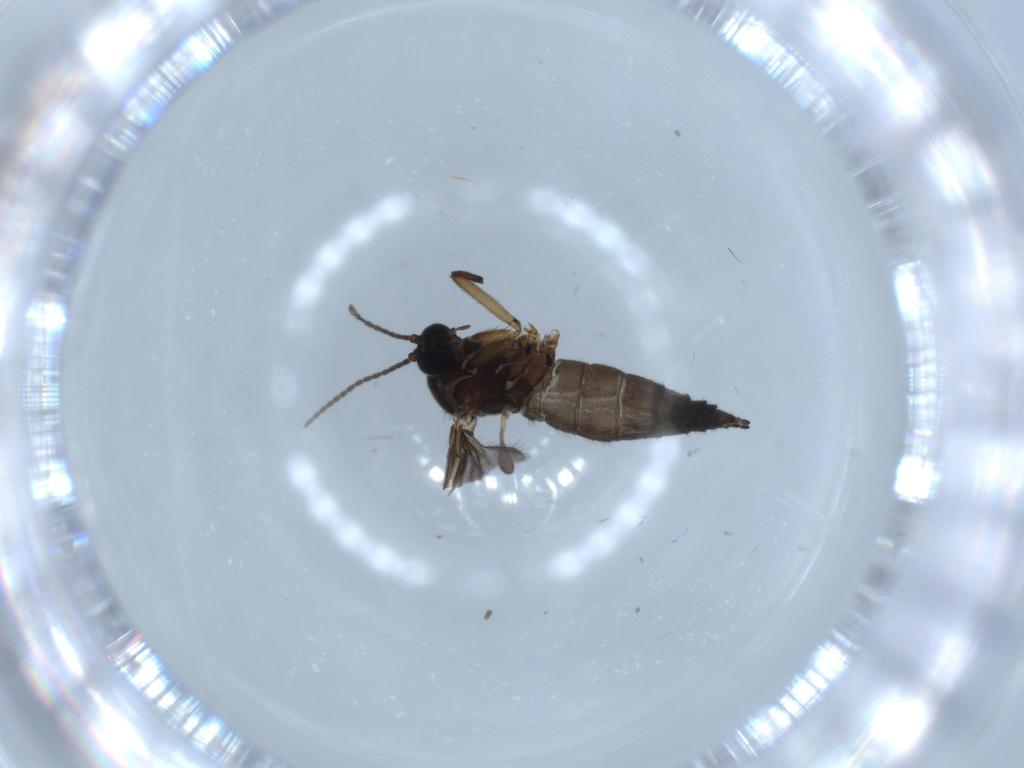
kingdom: Animalia
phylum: Arthropoda
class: Insecta
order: Diptera
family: Sciaridae
